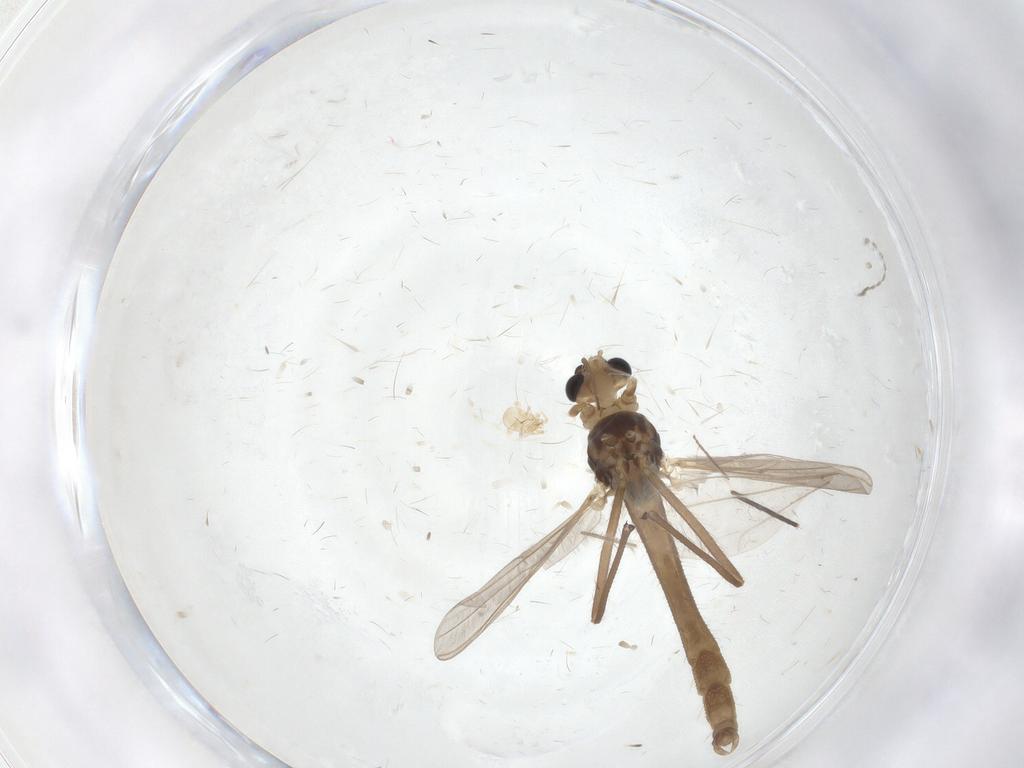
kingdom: Animalia
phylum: Arthropoda
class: Insecta
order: Diptera
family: Chironomidae
